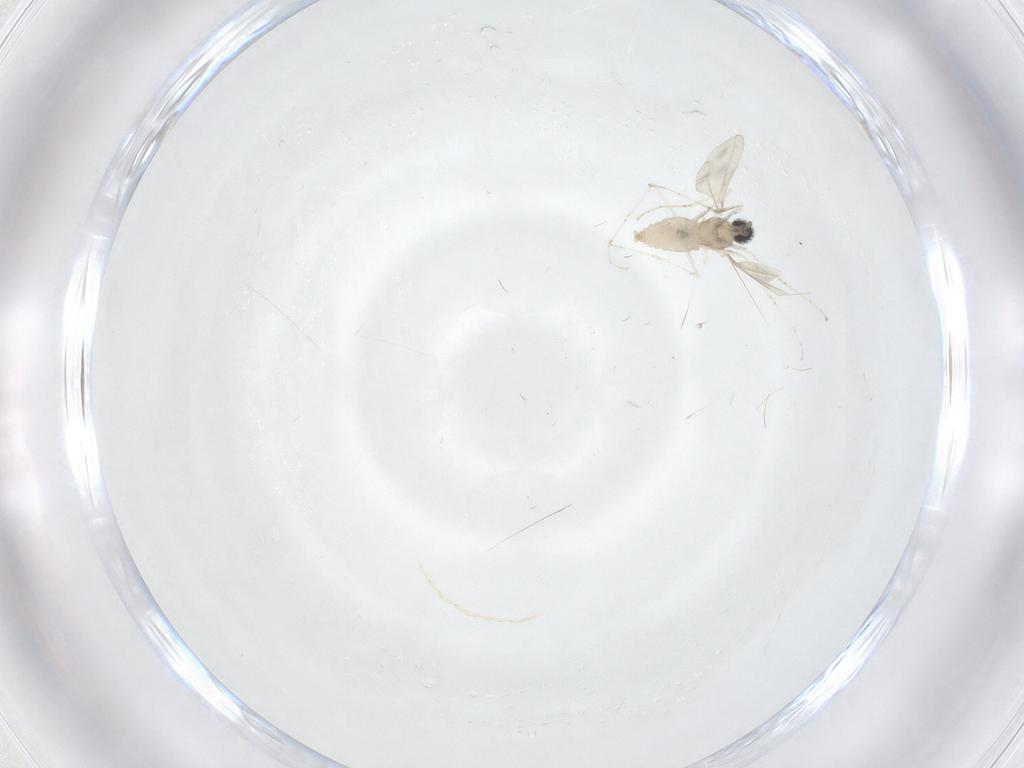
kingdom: Animalia
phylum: Arthropoda
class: Insecta
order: Diptera
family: Sciaridae
